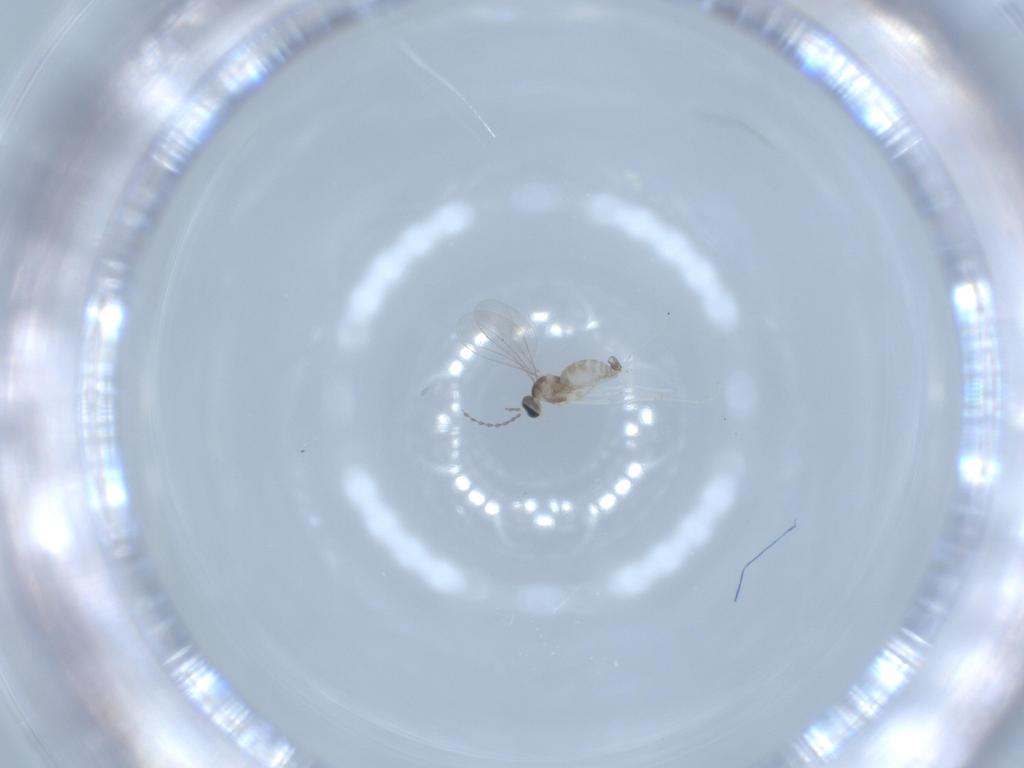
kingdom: Animalia
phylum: Arthropoda
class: Insecta
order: Diptera
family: Cecidomyiidae
